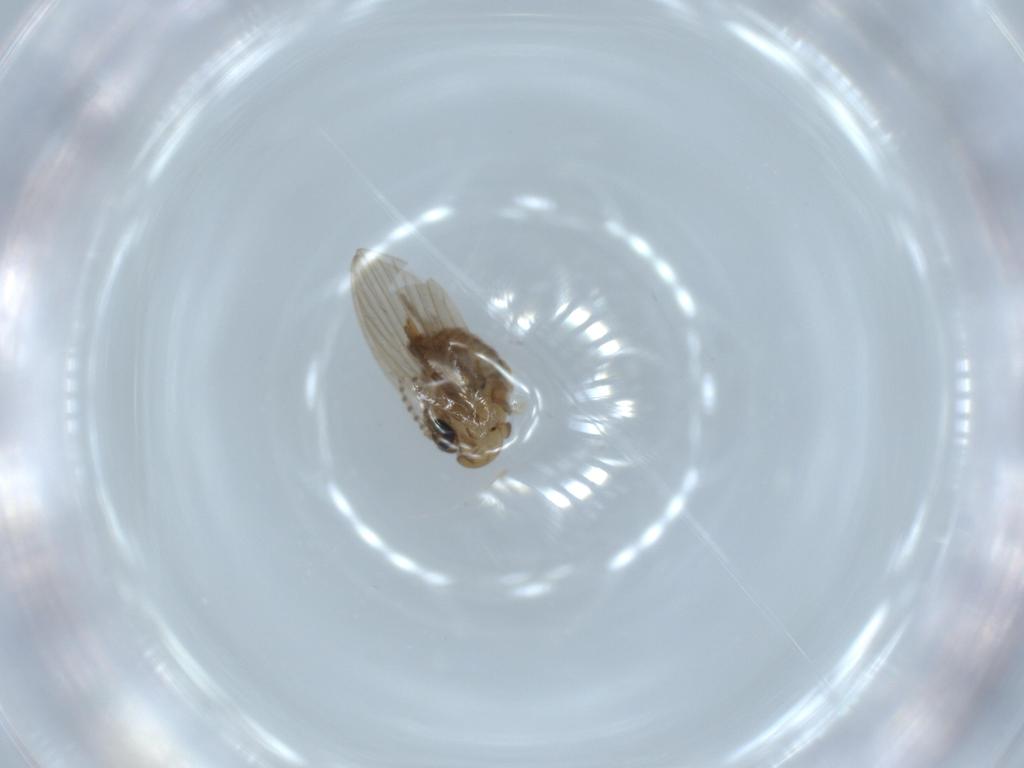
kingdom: Animalia
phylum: Arthropoda
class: Insecta
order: Diptera
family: Psychodidae
